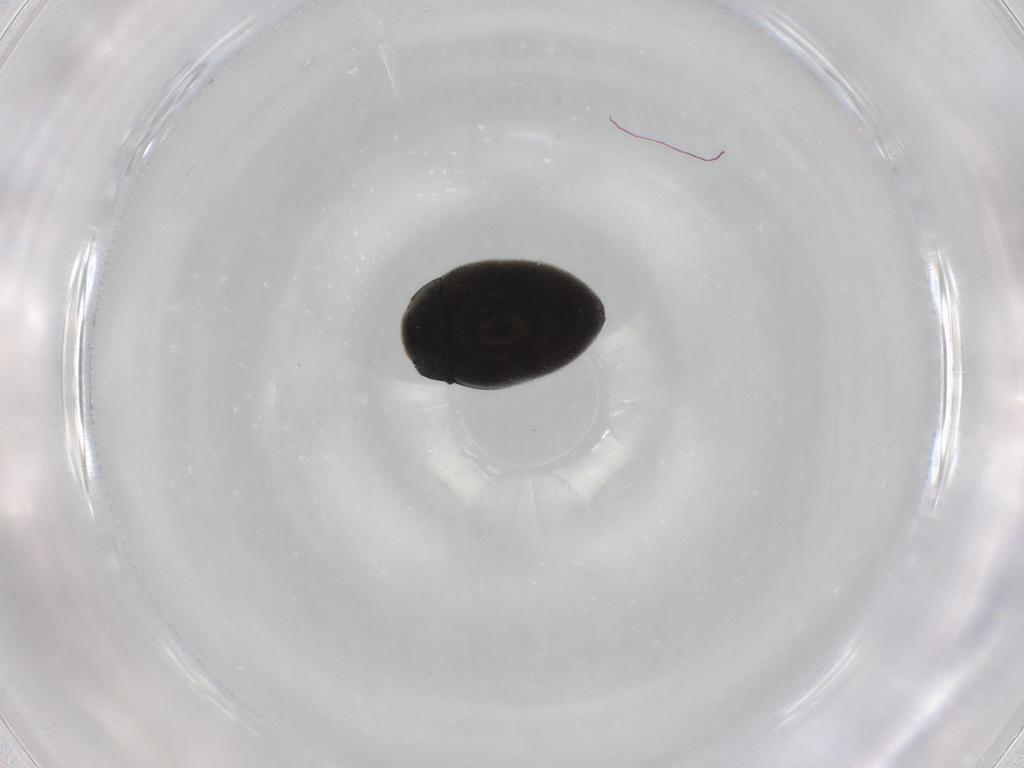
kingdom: Animalia
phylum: Arthropoda
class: Insecta
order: Coleoptera
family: Limnichidae
